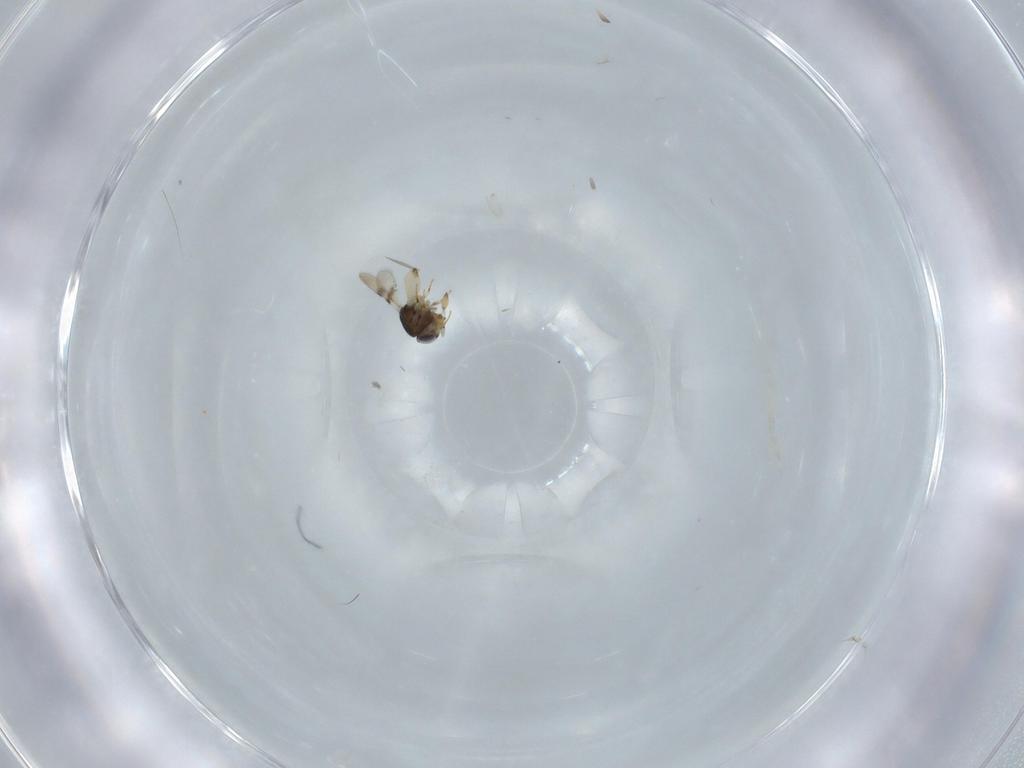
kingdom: Animalia
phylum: Arthropoda
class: Insecta
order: Hymenoptera
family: Scelionidae
